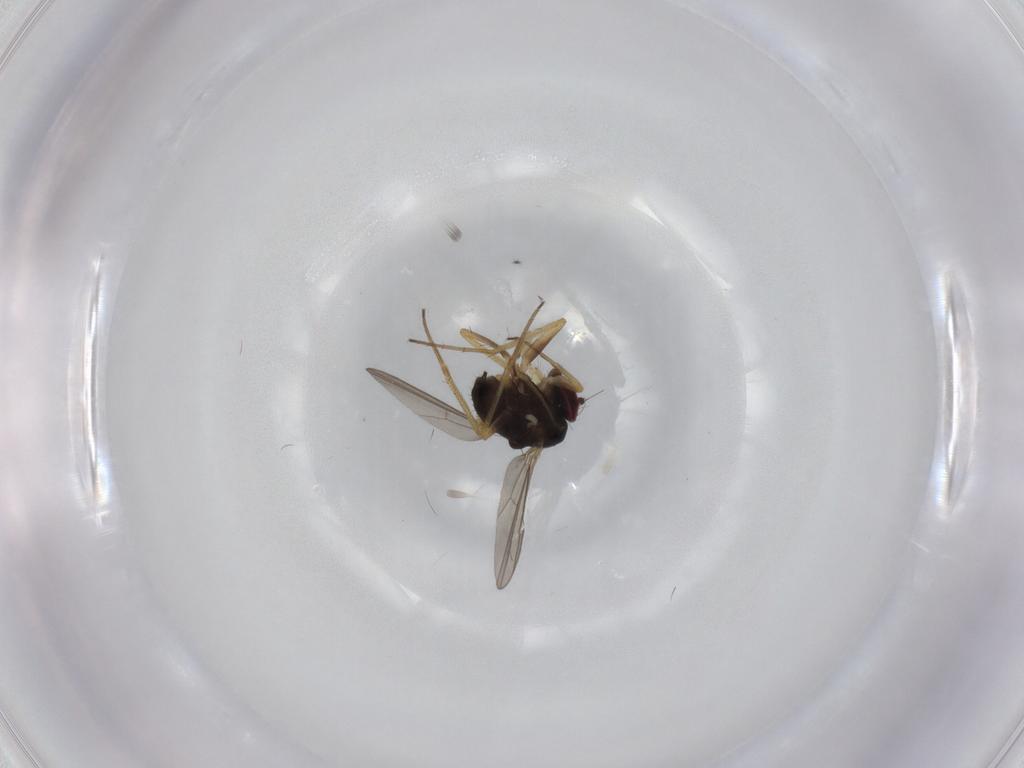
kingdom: Animalia
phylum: Arthropoda
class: Insecta
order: Diptera
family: Dolichopodidae
